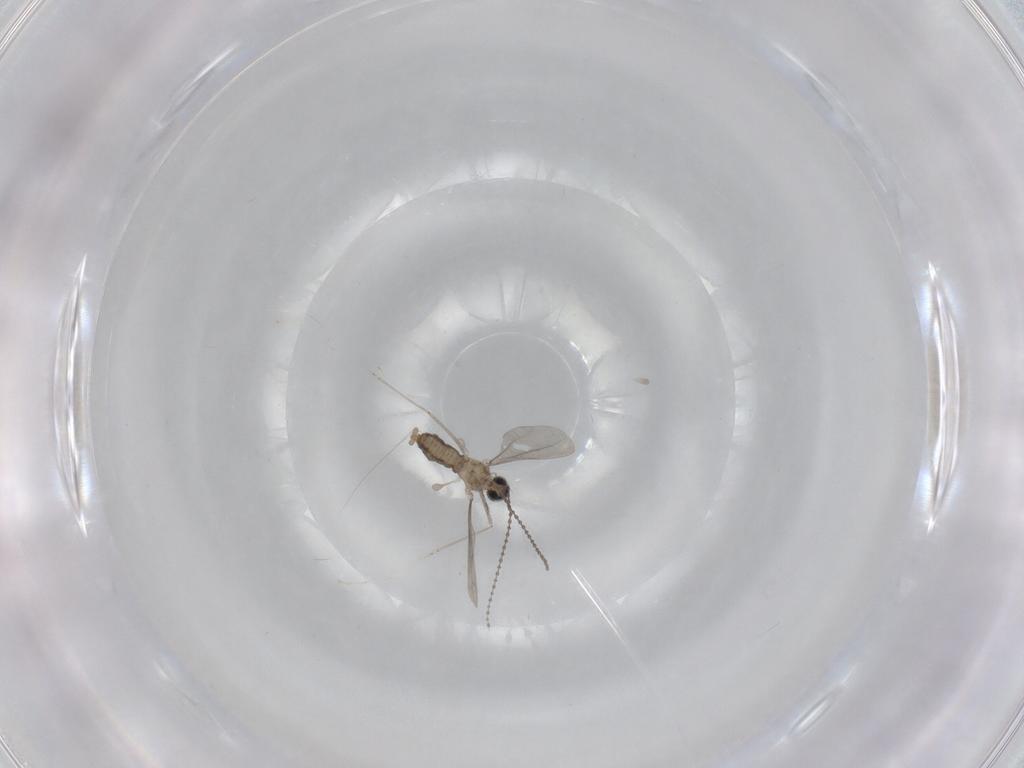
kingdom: Animalia
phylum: Arthropoda
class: Insecta
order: Diptera
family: Cecidomyiidae
